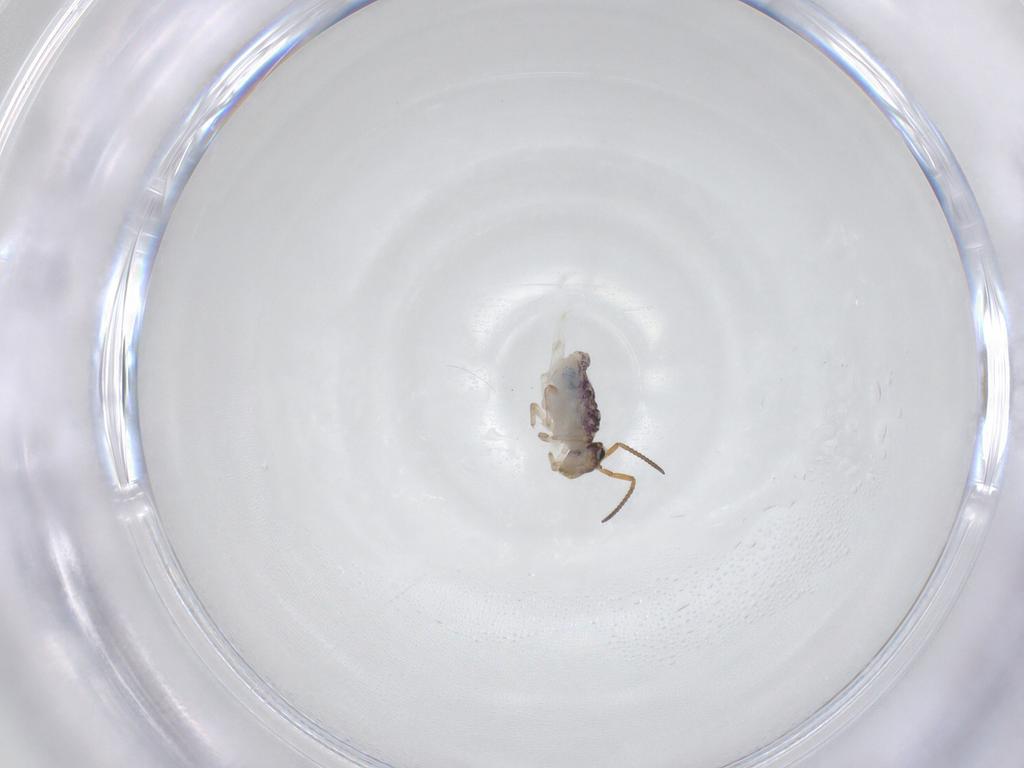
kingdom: Animalia
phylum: Arthropoda
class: Collembola
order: Symphypleona
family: Katiannidae
